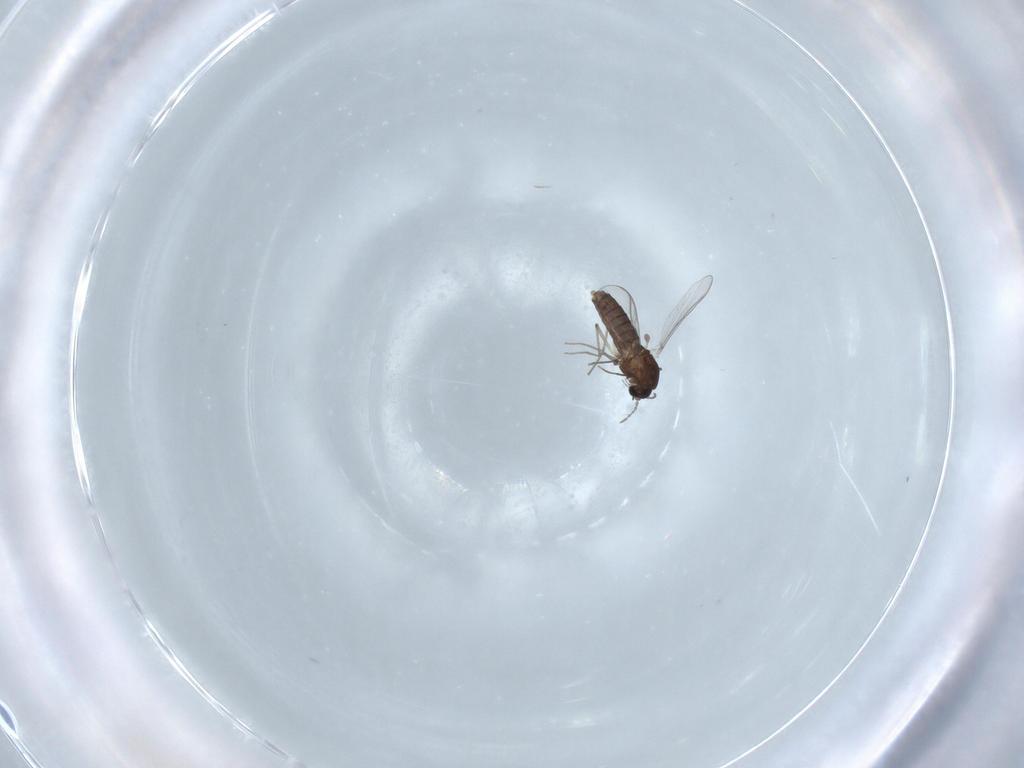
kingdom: Animalia
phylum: Arthropoda
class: Insecta
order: Diptera
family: Chironomidae
